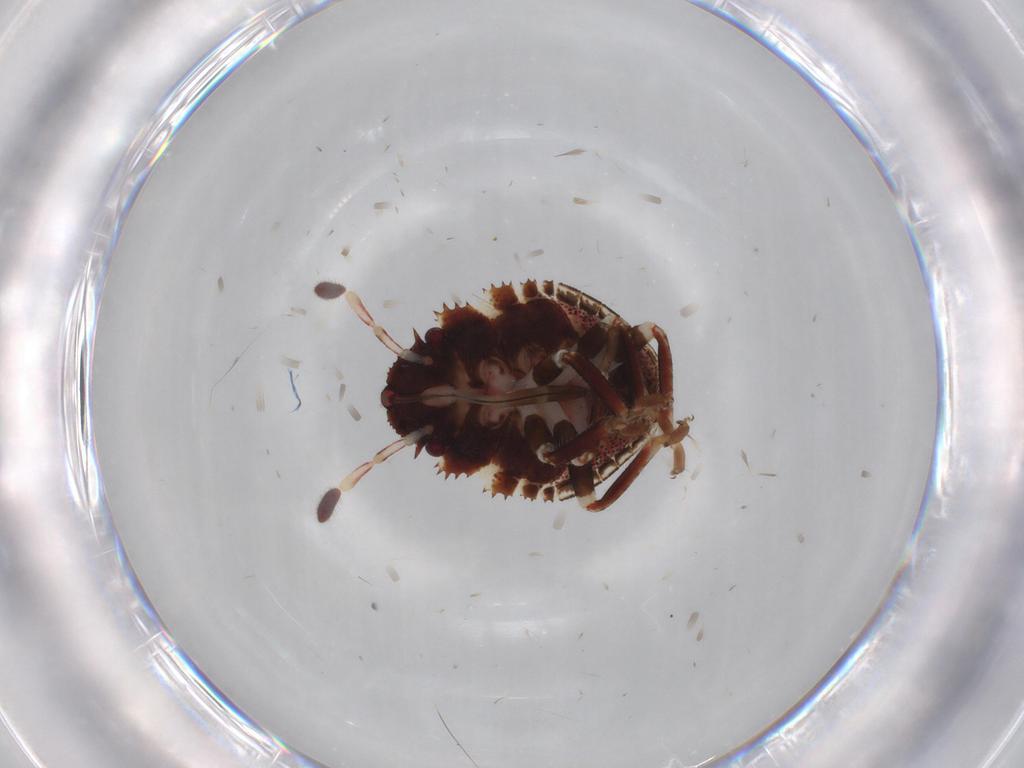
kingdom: Animalia
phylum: Arthropoda
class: Insecta
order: Hemiptera
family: Scutelleridae
